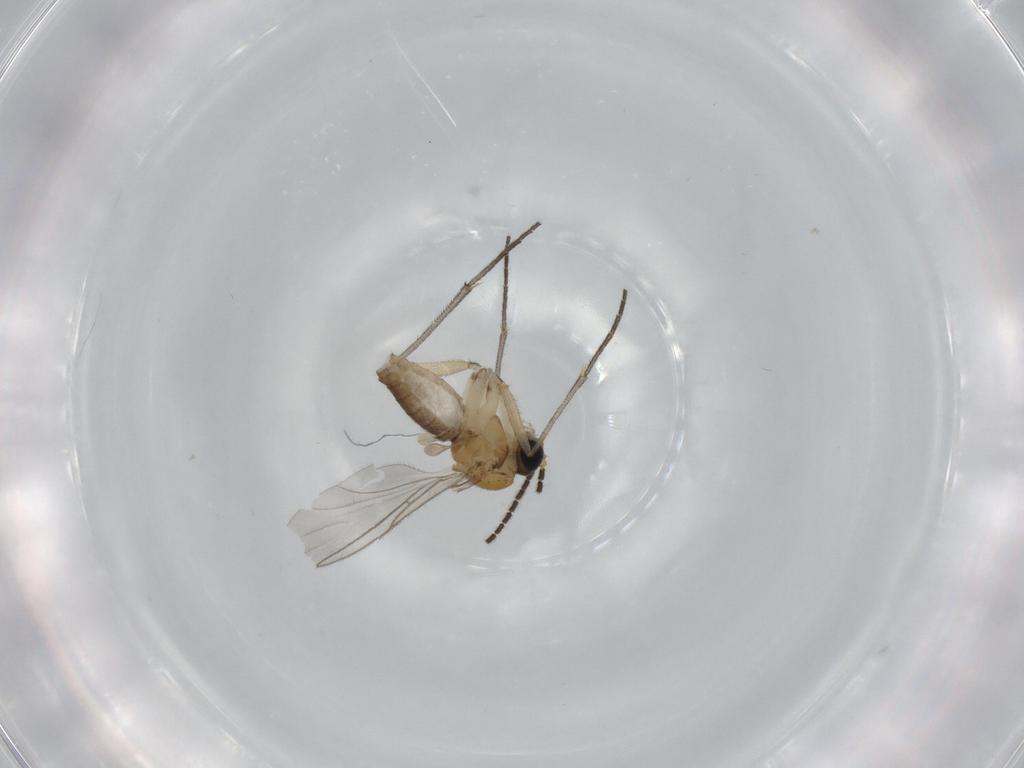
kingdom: Animalia
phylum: Arthropoda
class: Insecta
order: Diptera
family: Sciaridae
